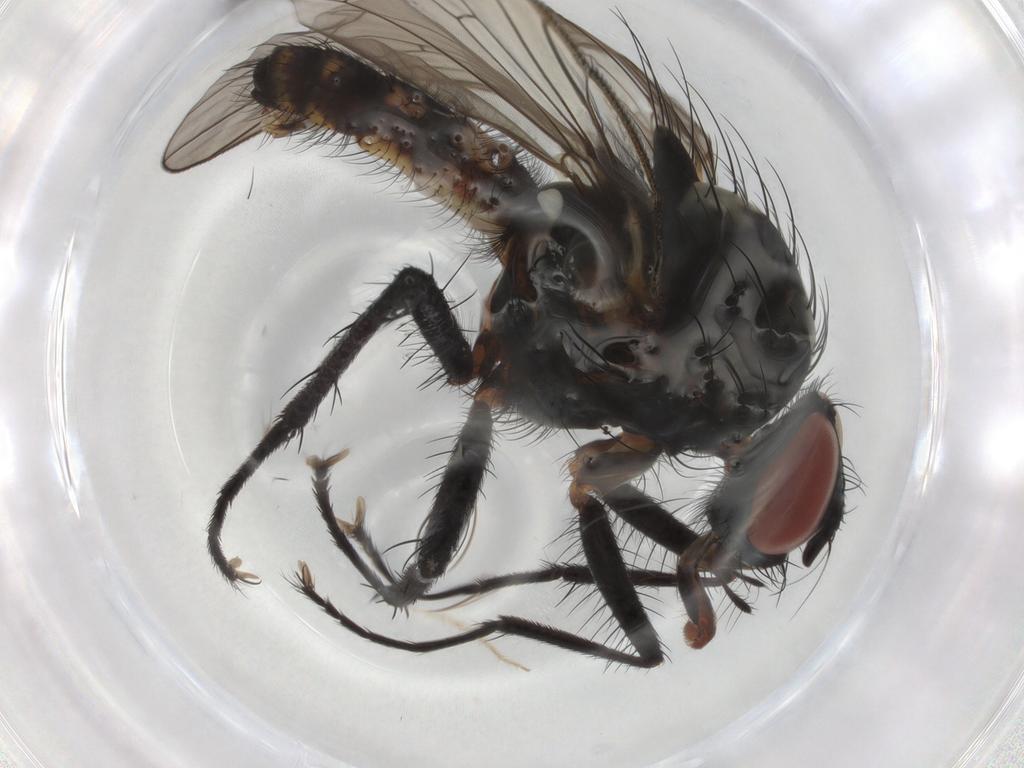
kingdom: Animalia
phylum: Arthropoda
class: Insecta
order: Diptera
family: Anthomyiidae
